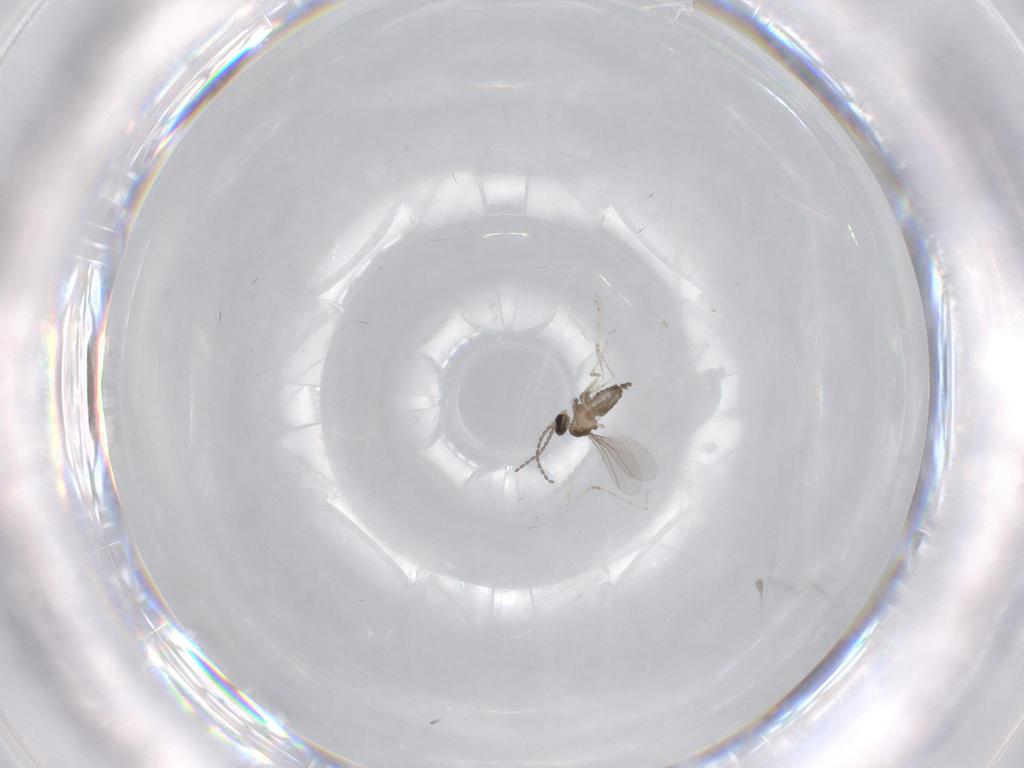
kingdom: Animalia
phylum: Arthropoda
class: Insecta
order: Diptera
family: Cecidomyiidae
